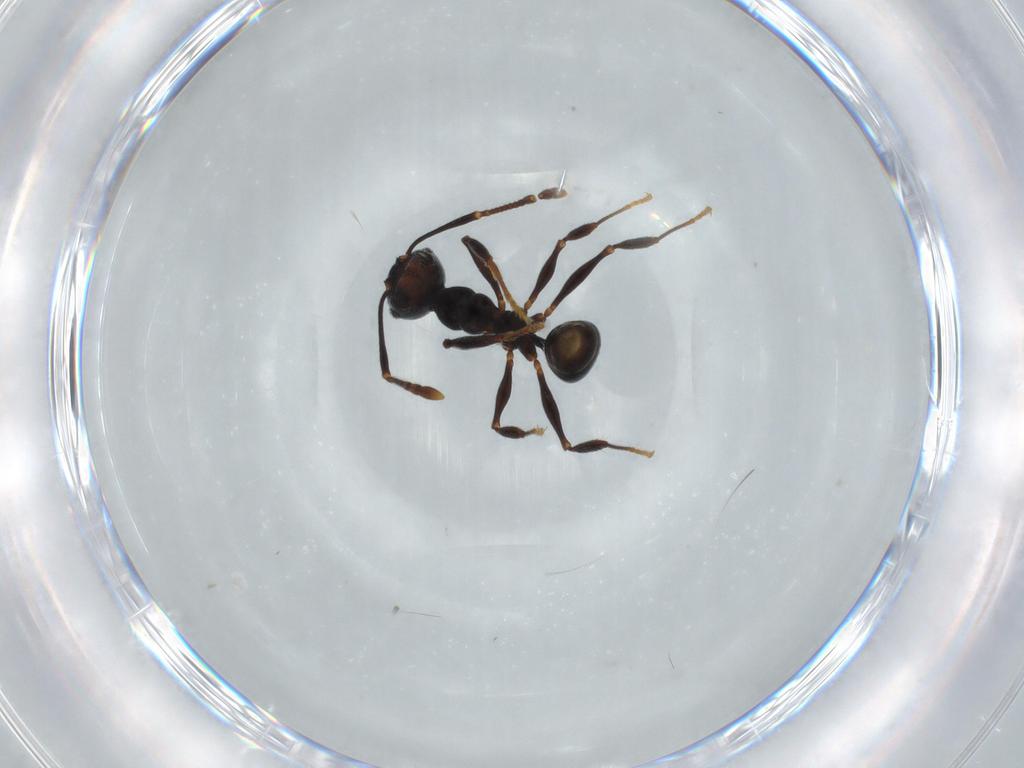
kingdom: Animalia
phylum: Arthropoda
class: Insecta
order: Hymenoptera
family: Formicidae
